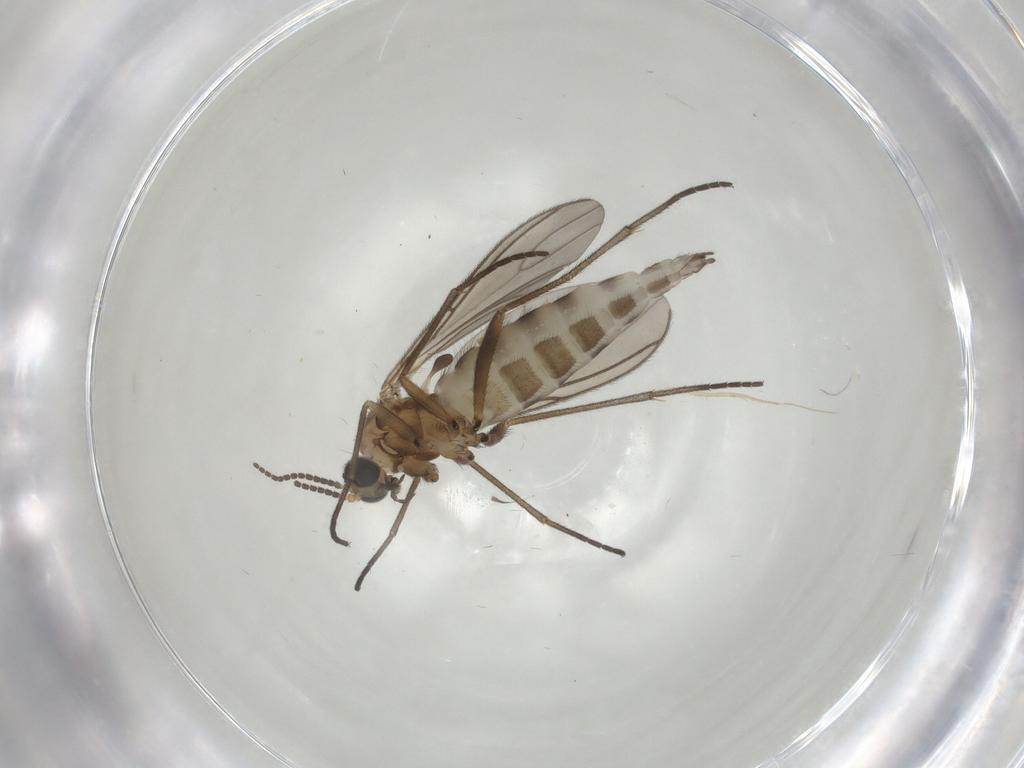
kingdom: Animalia
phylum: Arthropoda
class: Insecta
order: Diptera
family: Sciaridae
